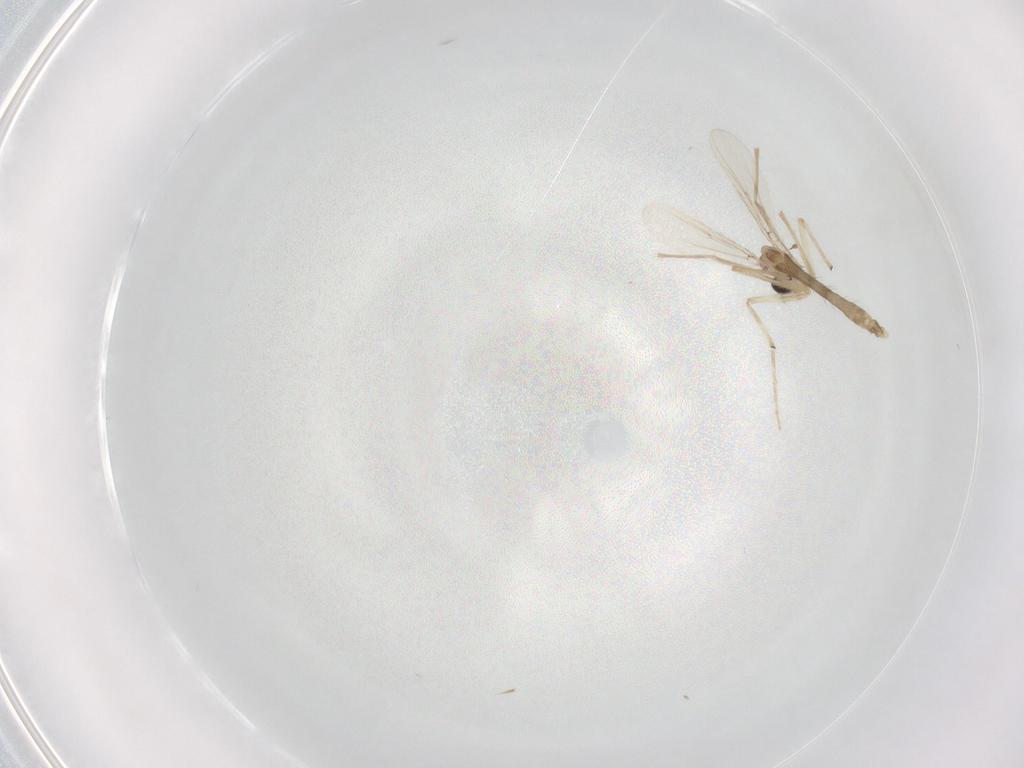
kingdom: Animalia
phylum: Arthropoda
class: Insecta
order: Diptera
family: Chironomidae
